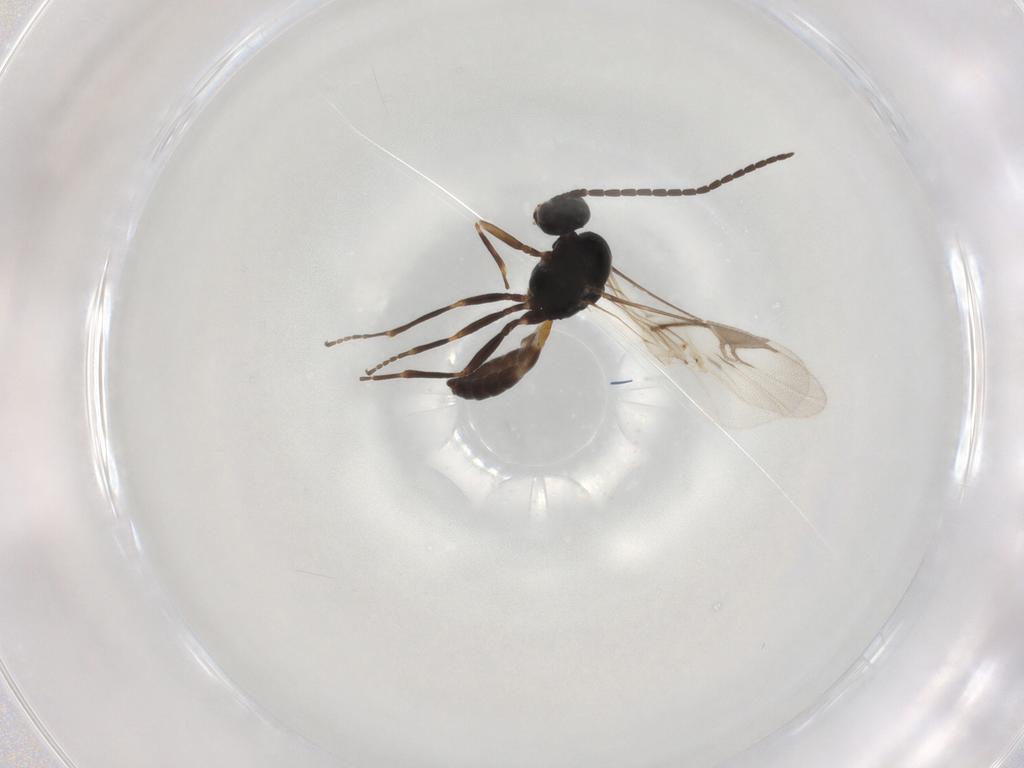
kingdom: Animalia
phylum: Arthropoda
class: Insecta
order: Hymenoptera
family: Braconidae
